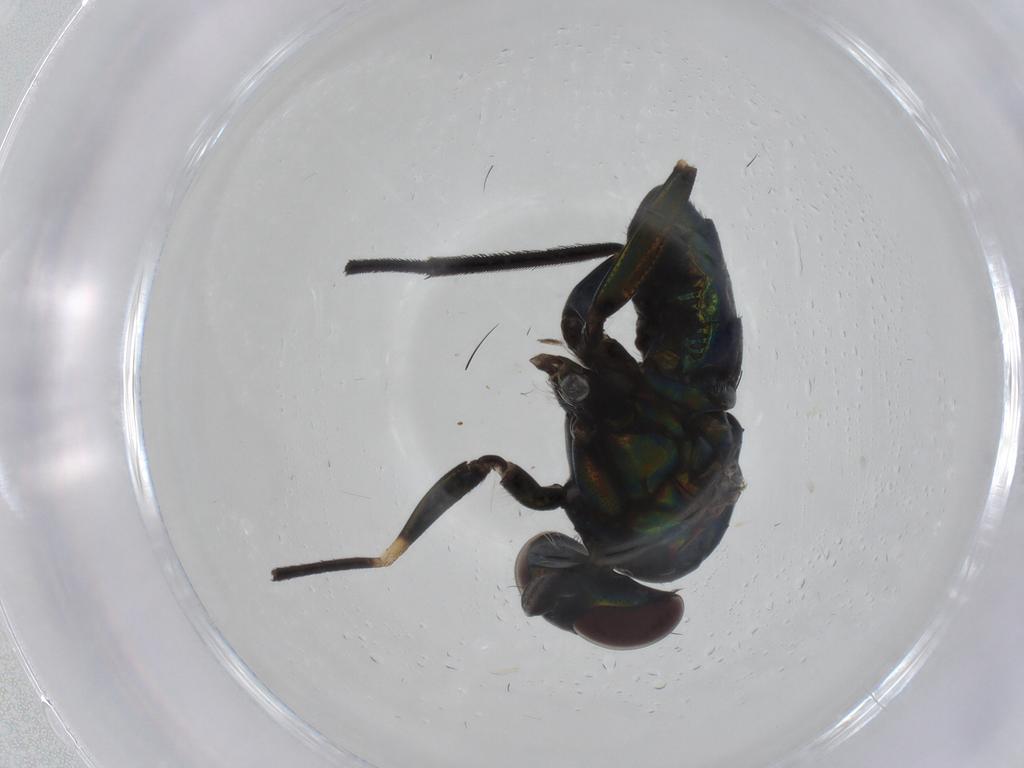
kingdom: Animalia
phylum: Arthropoda
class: Insecta
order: Diptera
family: Dolichopodidae
